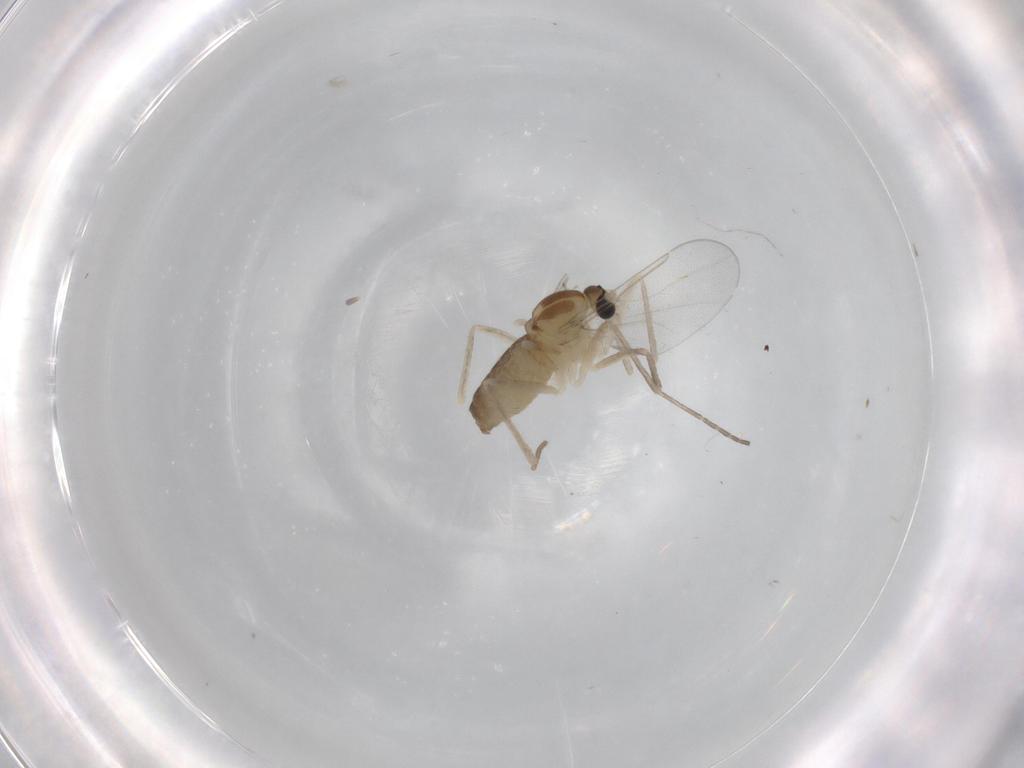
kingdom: Animalia
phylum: Arthropoda
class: Insecta
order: Diptera
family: Cecidomyiidae
